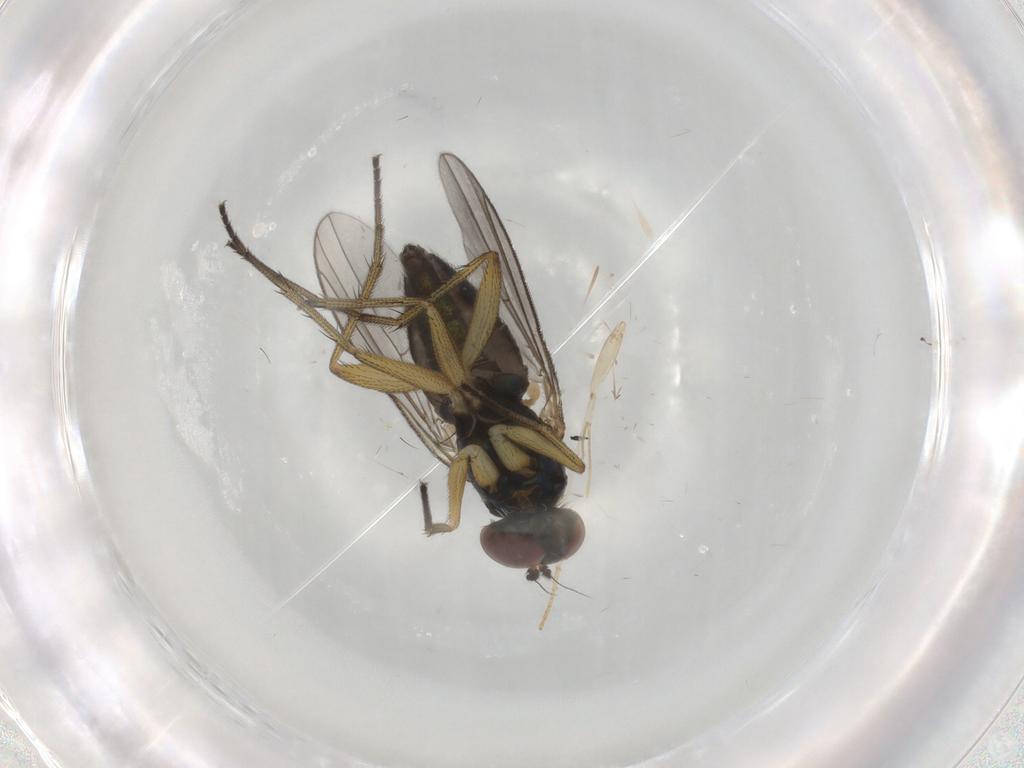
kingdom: Animalia
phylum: Arthropoda
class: Insecta
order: Diptera
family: Dolichopodidae
